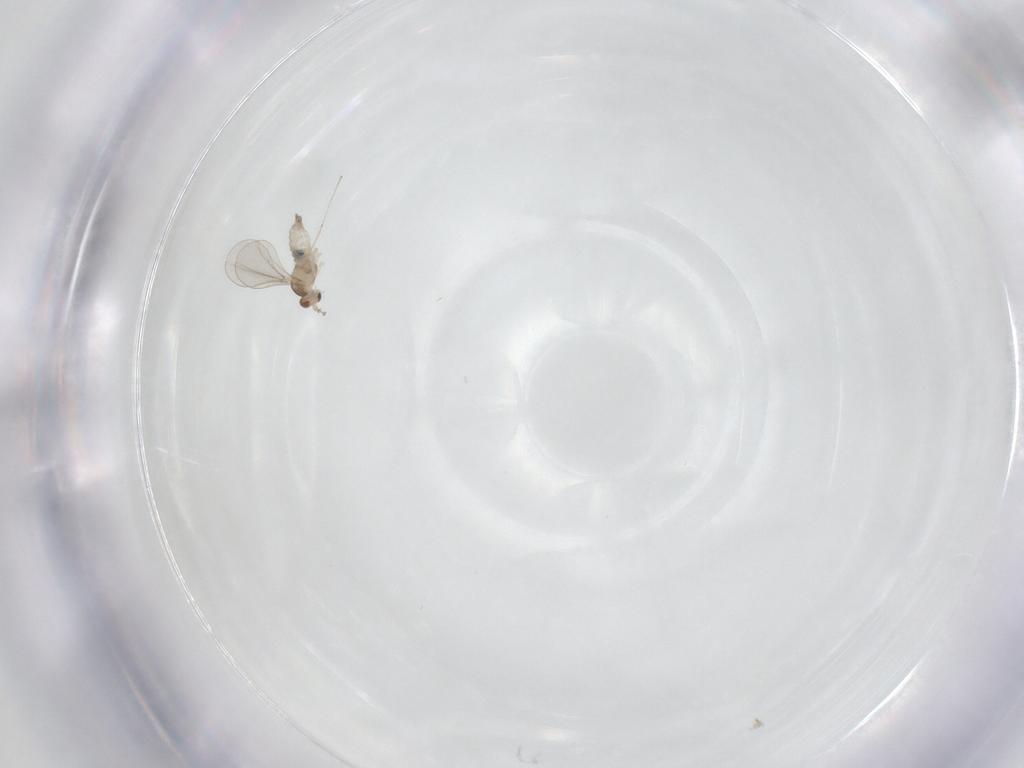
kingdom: Animalia
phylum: Arthropoda
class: Insecta
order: Diptera
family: Cecidomyiidae
